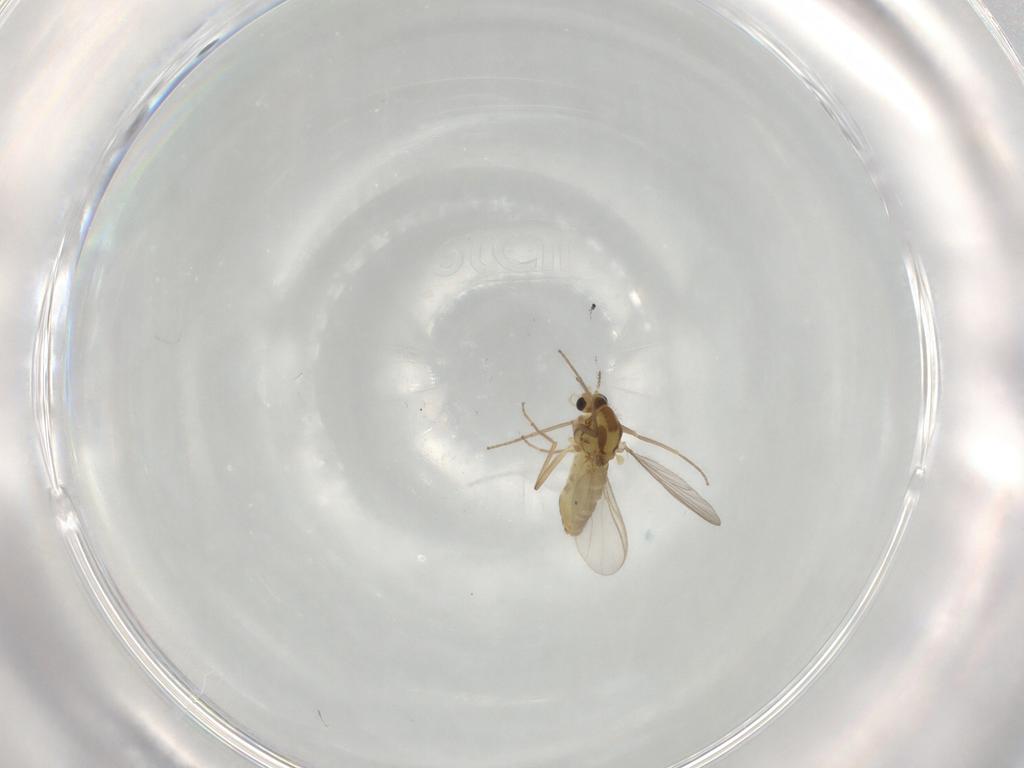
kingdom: Animalia
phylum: Arthropoda
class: Insecta
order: Diptera
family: Chironomidae
